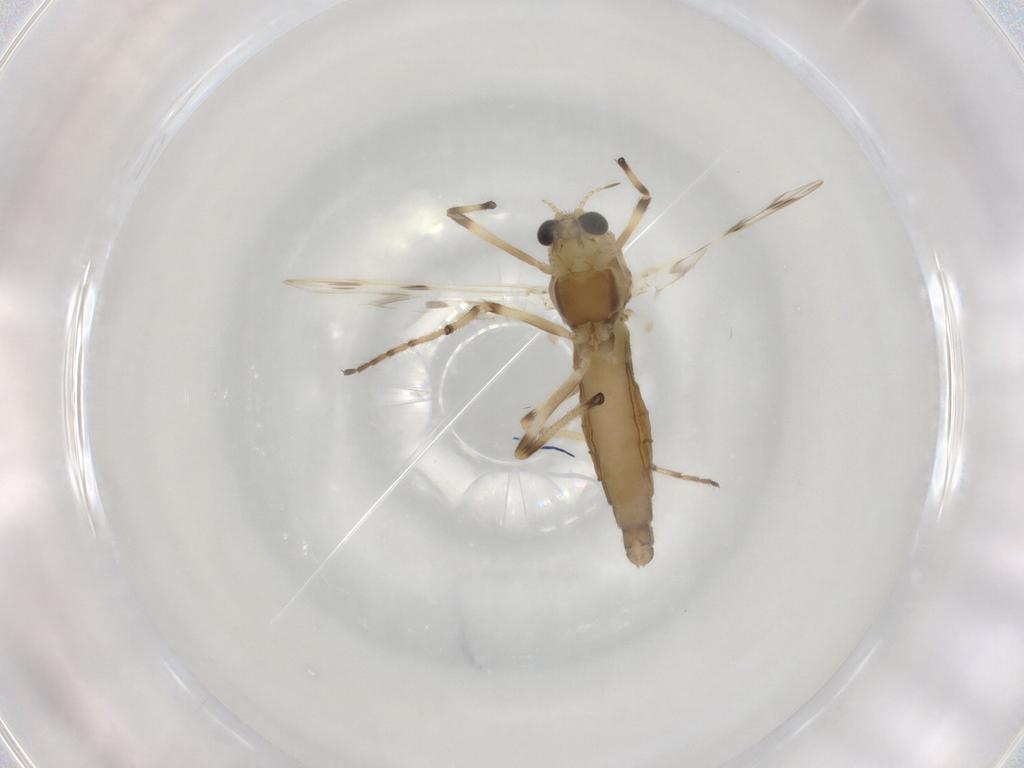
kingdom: Animalia
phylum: Arthropoda
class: Insecta
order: Diptera
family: Chironomidae
